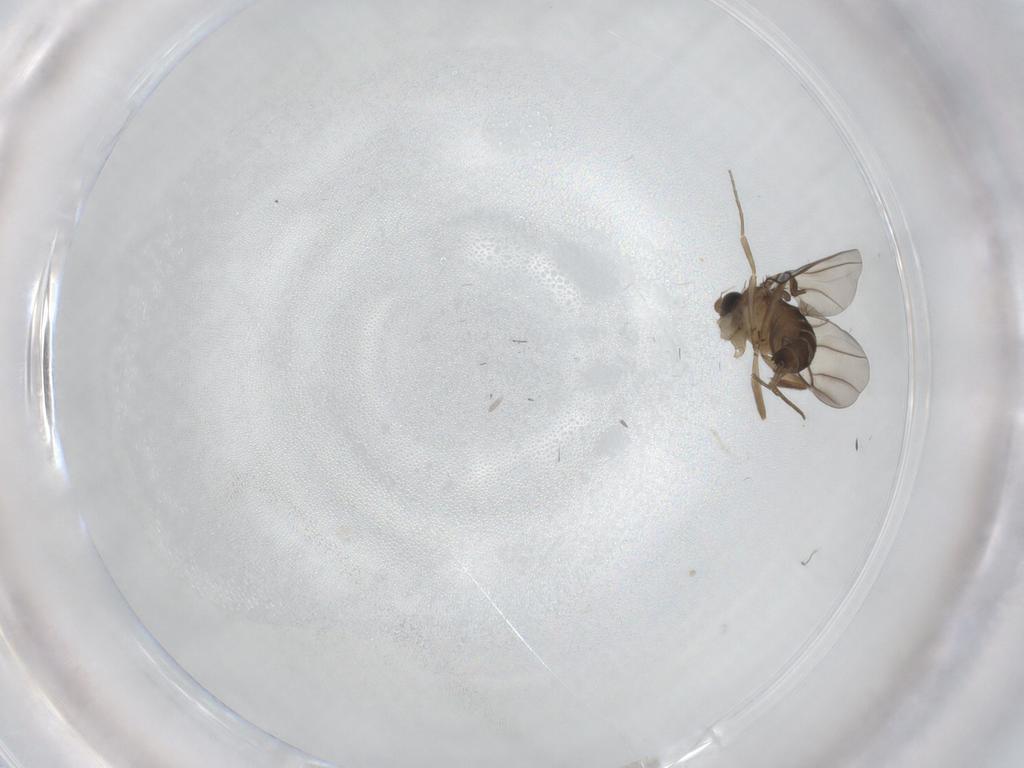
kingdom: Animalia
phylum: Arthropoda
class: Insecta
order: Diptera
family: Phoridae
